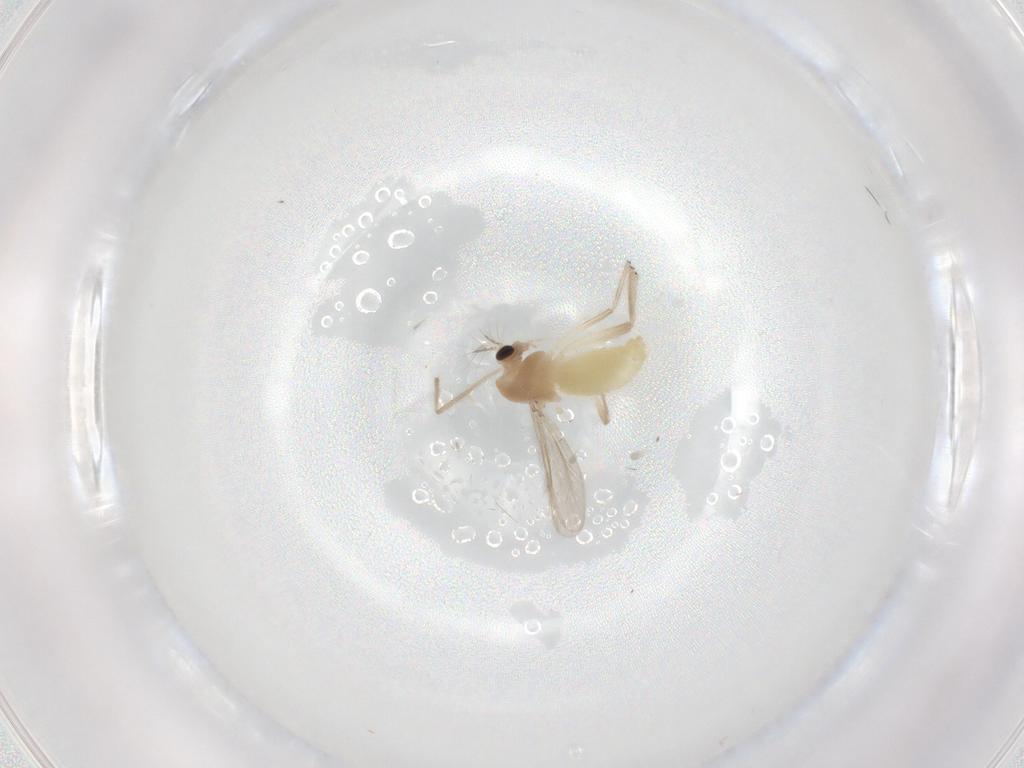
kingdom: Animalia
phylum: Arthropoda
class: Insecta
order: Diptera
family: Chironomidae
